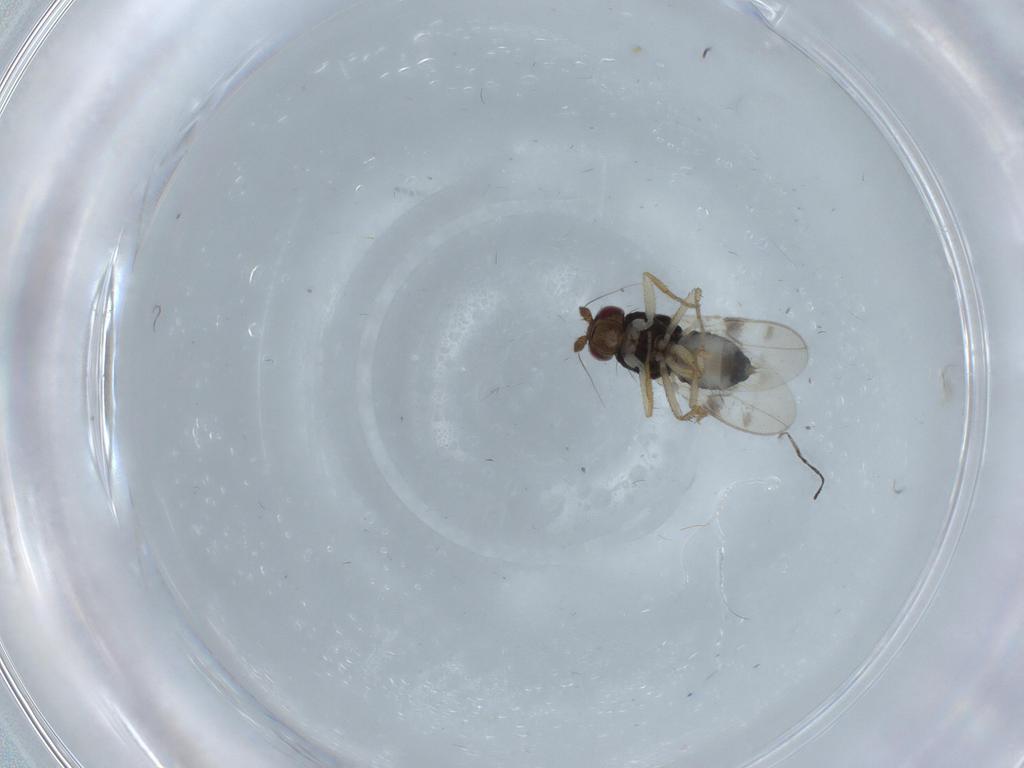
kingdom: Animalia
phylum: Arthropoda
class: Insecta
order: Diptera
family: Sphaeroceridae
